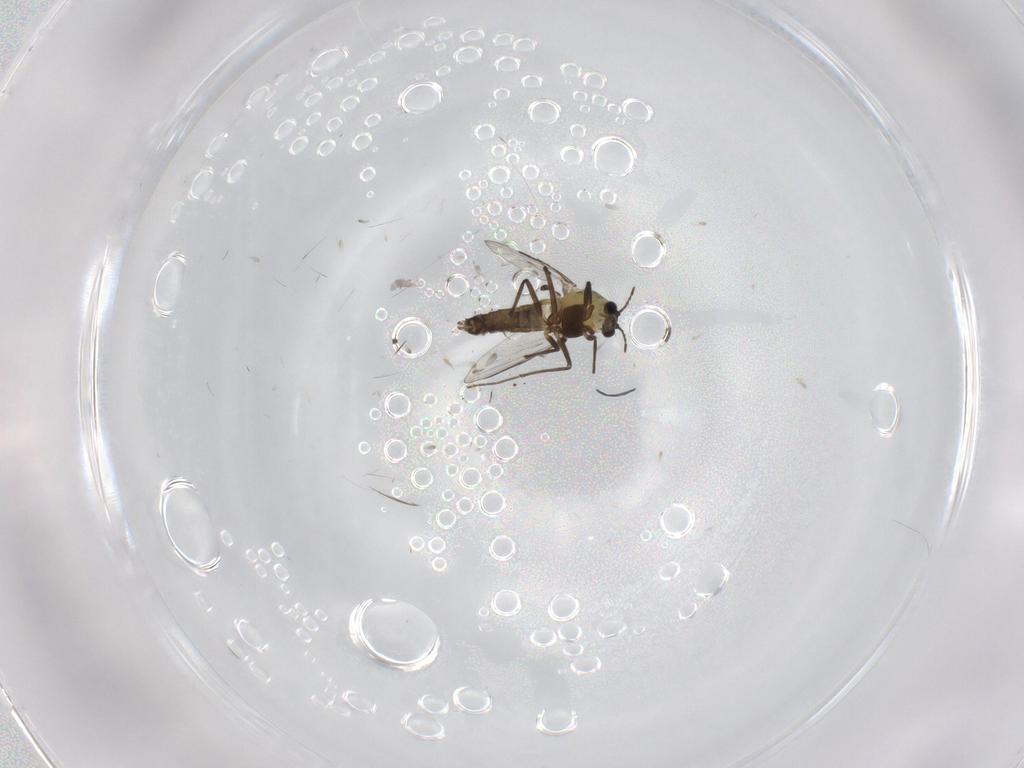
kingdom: Animalia
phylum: Arthropoda
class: Insecta
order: Diptera
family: Chironomidae
